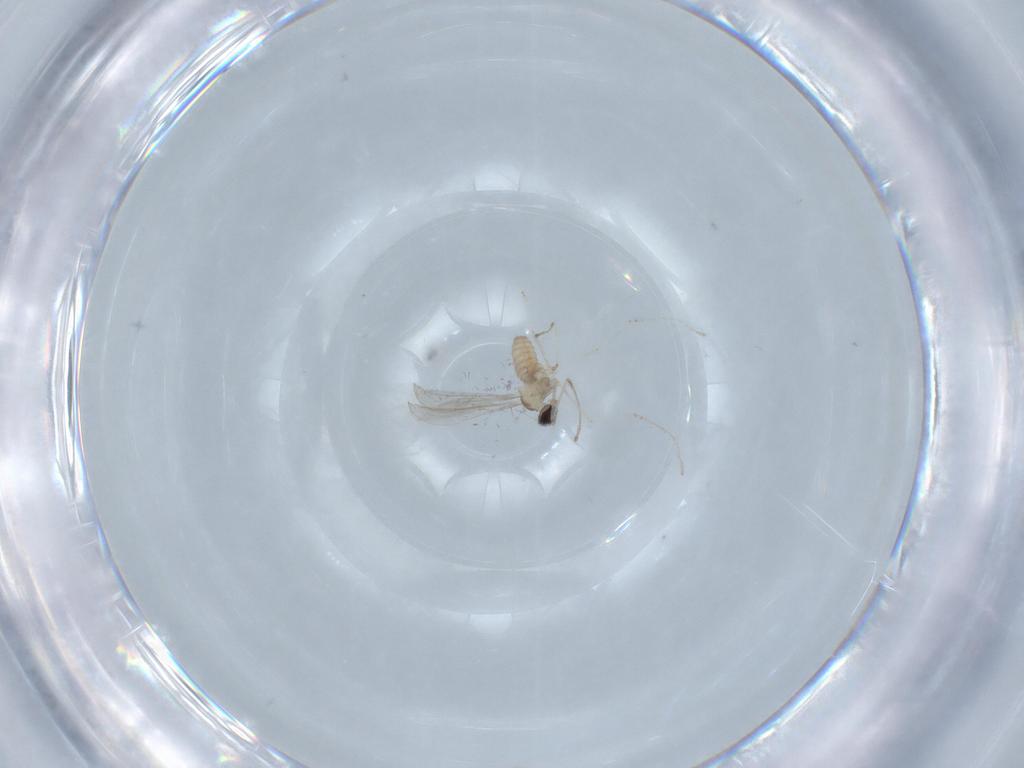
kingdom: Animalia
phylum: Arthropoda
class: Insecta
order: Diptera
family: Cecidomyiidae
